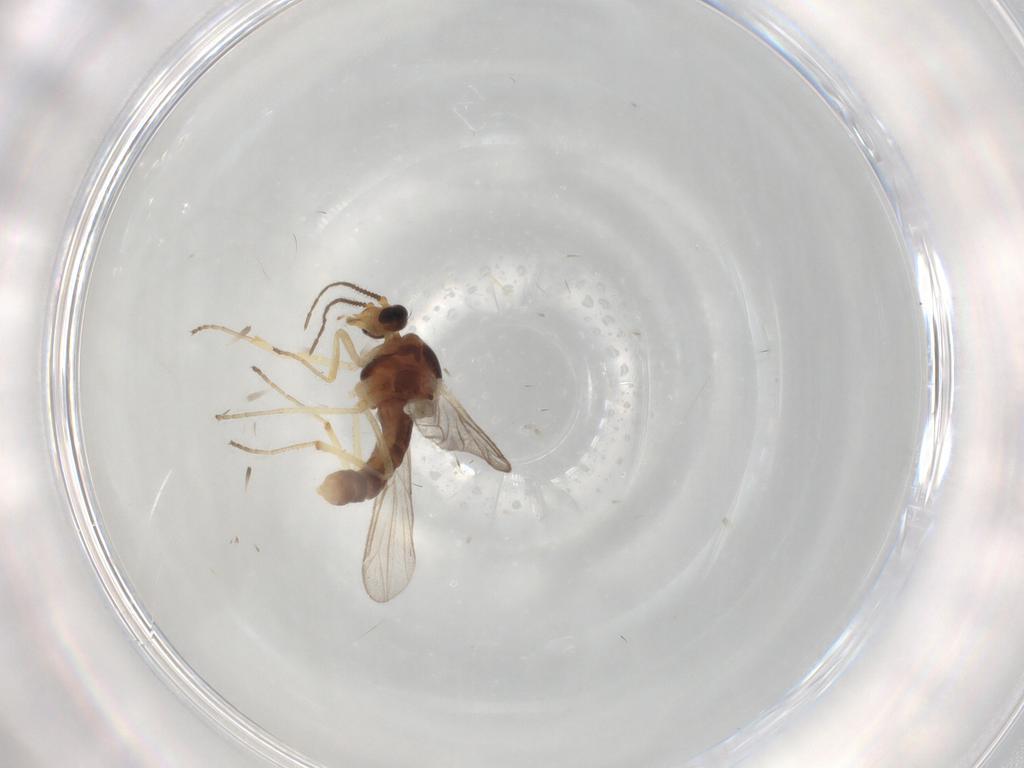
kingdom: Animalia
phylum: Arthropoda
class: Insecta
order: Diptera
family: Ceratopogonidae
